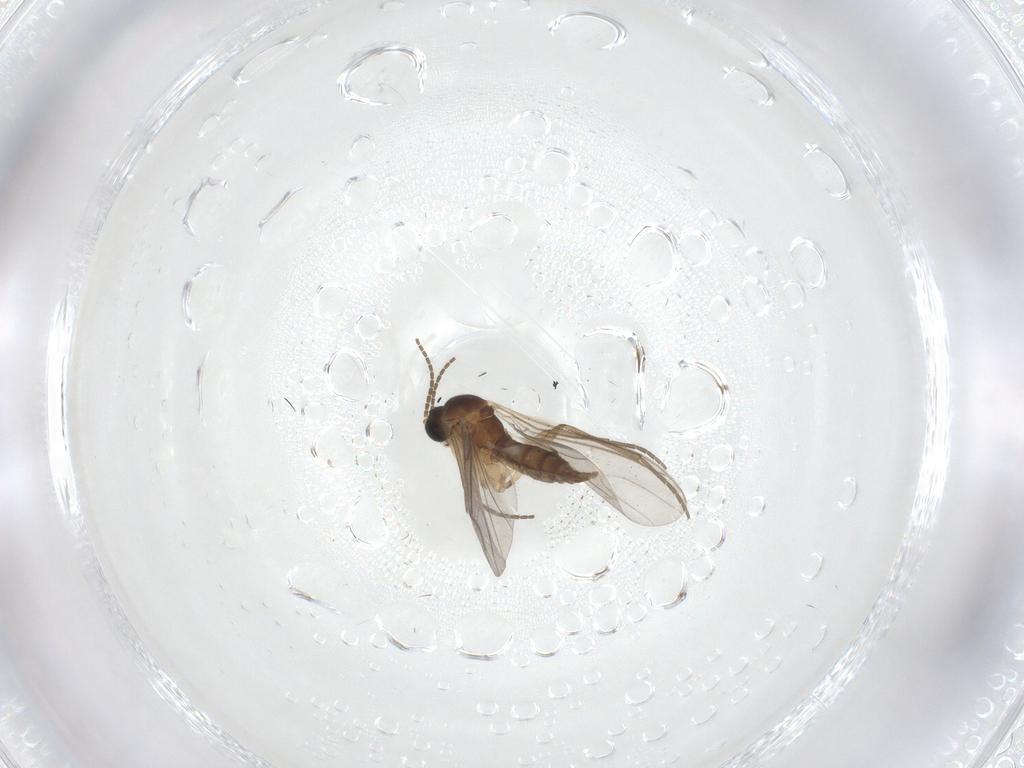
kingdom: Animalia
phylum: Arthropoda
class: Insecta
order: Diptera
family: Sciaridae
